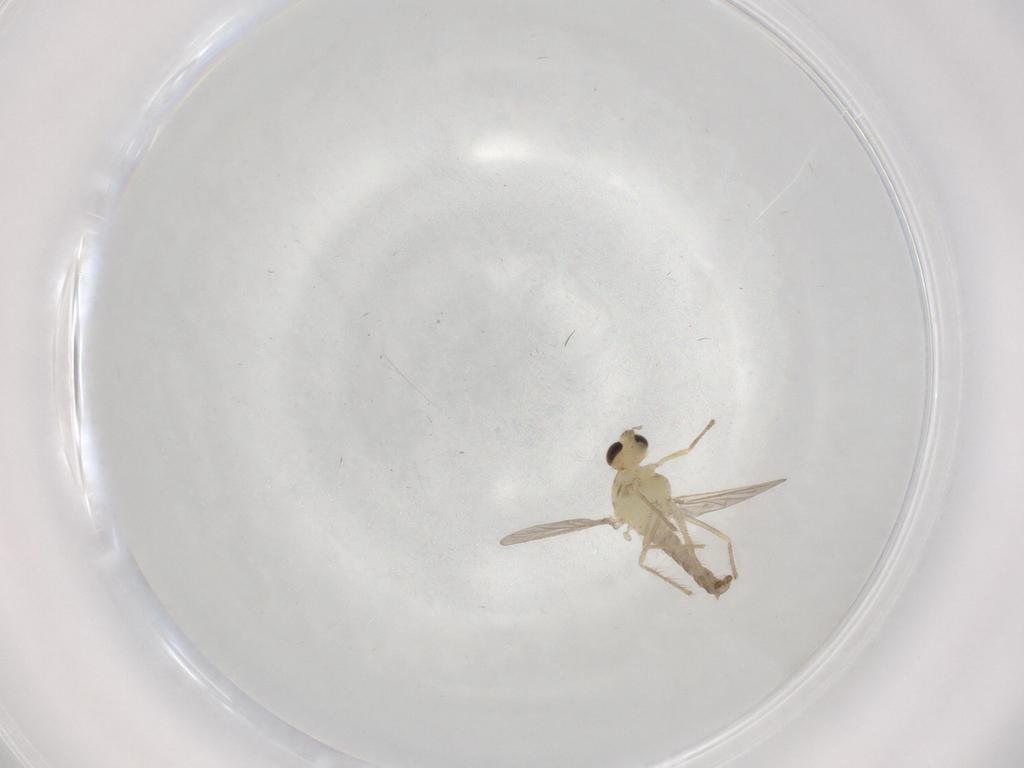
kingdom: Animalia
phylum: Arthropoda
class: Insecta
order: Diptera
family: Chironomidae
